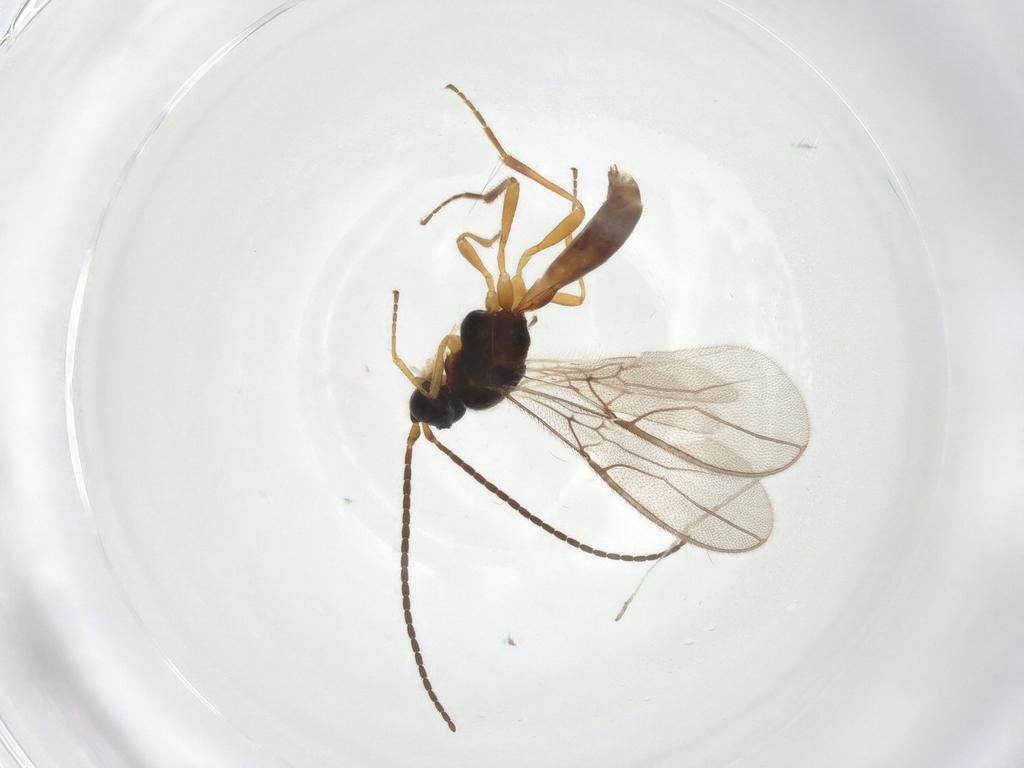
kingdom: Animalia
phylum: Arthropoda
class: Insecta
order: Hymenoptera
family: Braconidae
